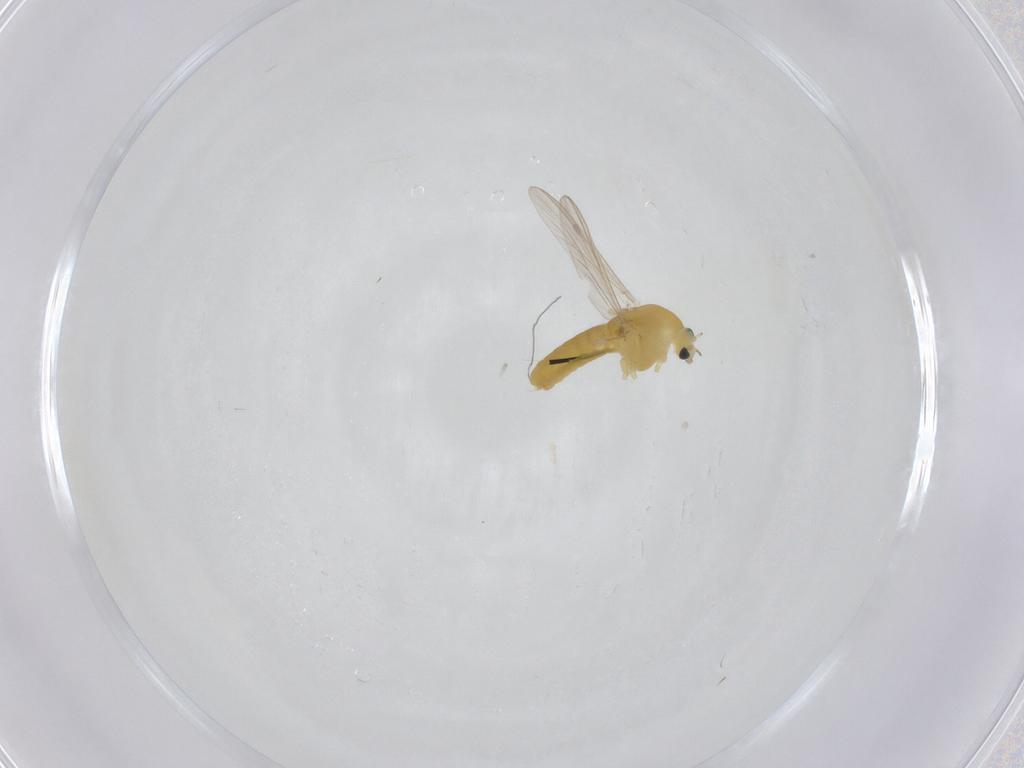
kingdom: Animalia
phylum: Arthropoda
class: Insecta
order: Diptera
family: Chironomidae
